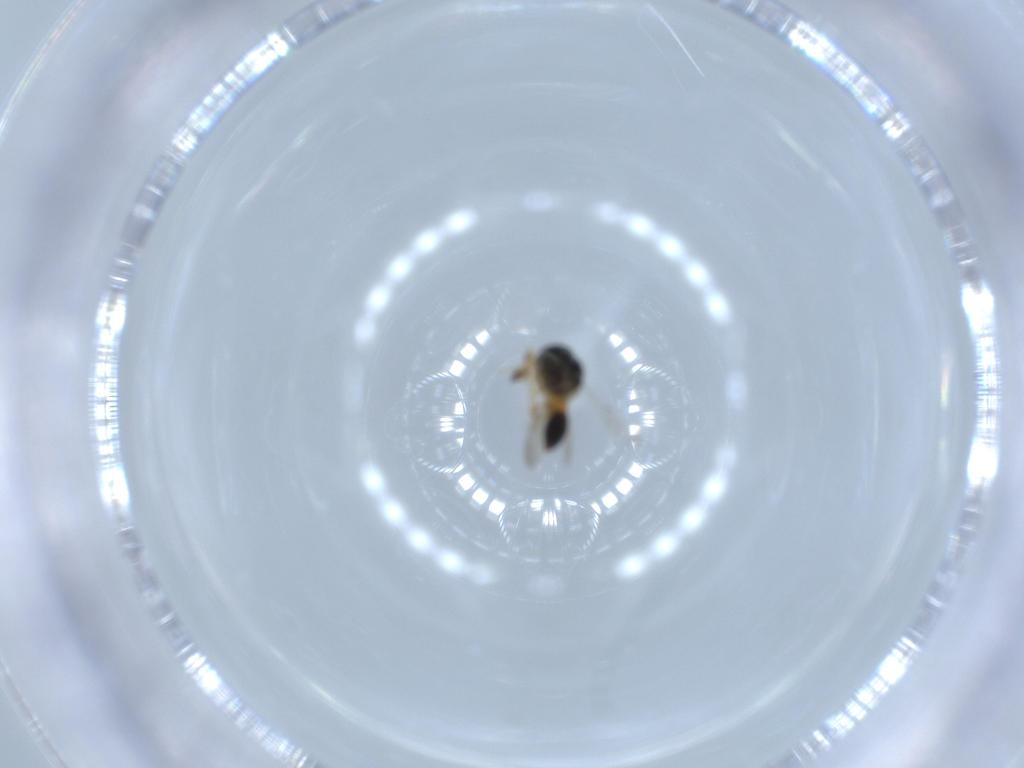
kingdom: Animalia
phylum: Arthropoda
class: Insecta
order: Hymenoptera
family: Scelionidae
